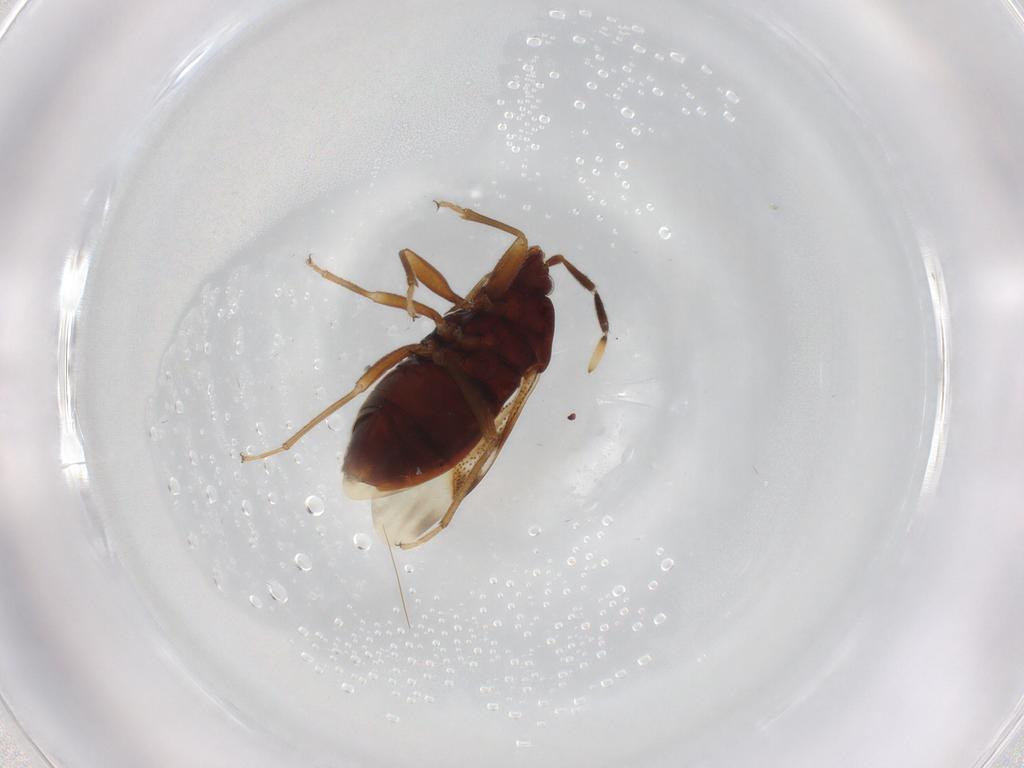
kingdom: Animalia
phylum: Arthropoda
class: Insecta
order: Hemiptera
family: Rhyparochromidae
